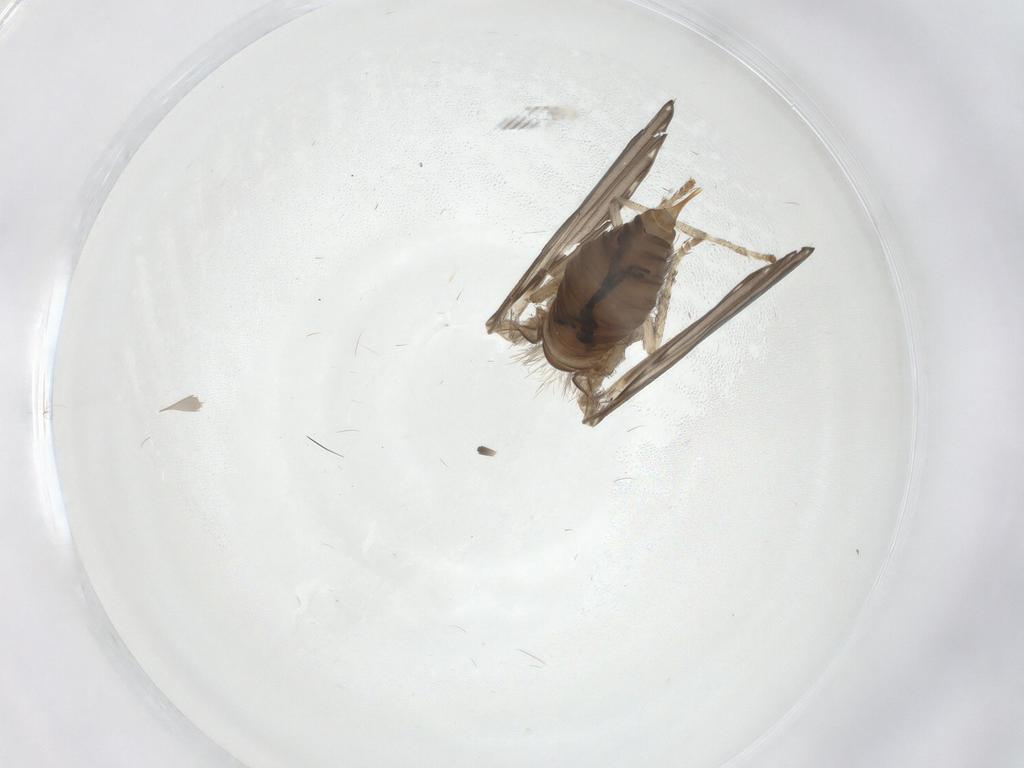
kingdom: Animalia
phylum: Arthropoda
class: Insecta
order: Diptera
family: Psychodidae
